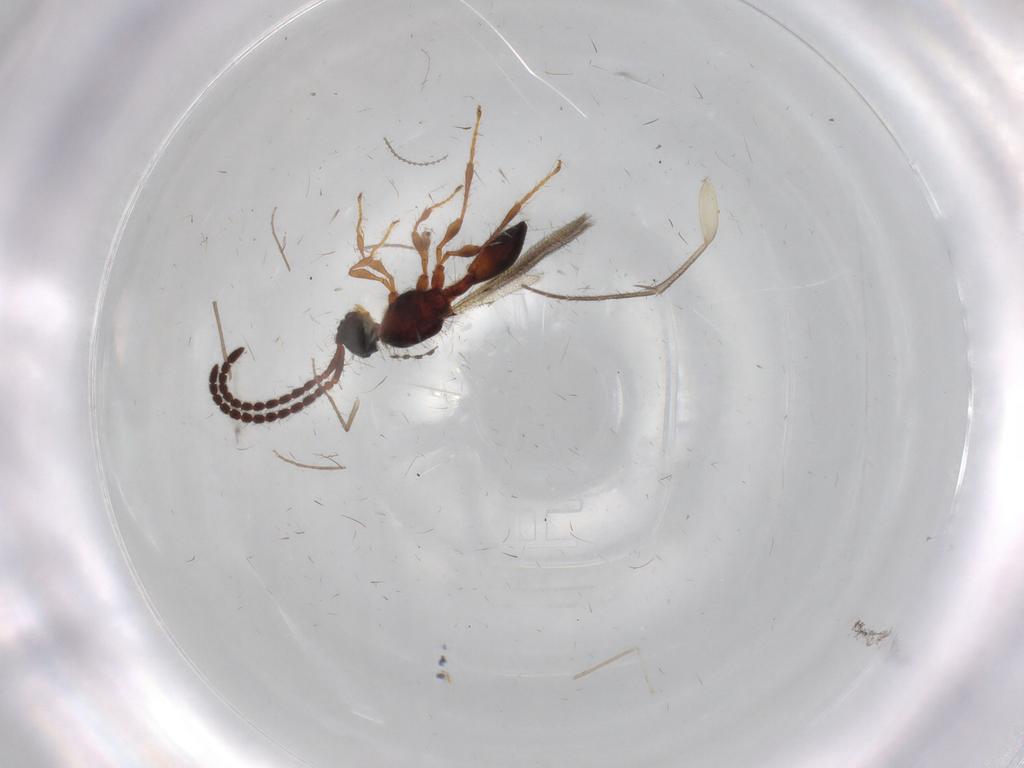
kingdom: Animalia
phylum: Arthropoda
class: Insecta
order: Hymenoptera
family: Diapriidae
